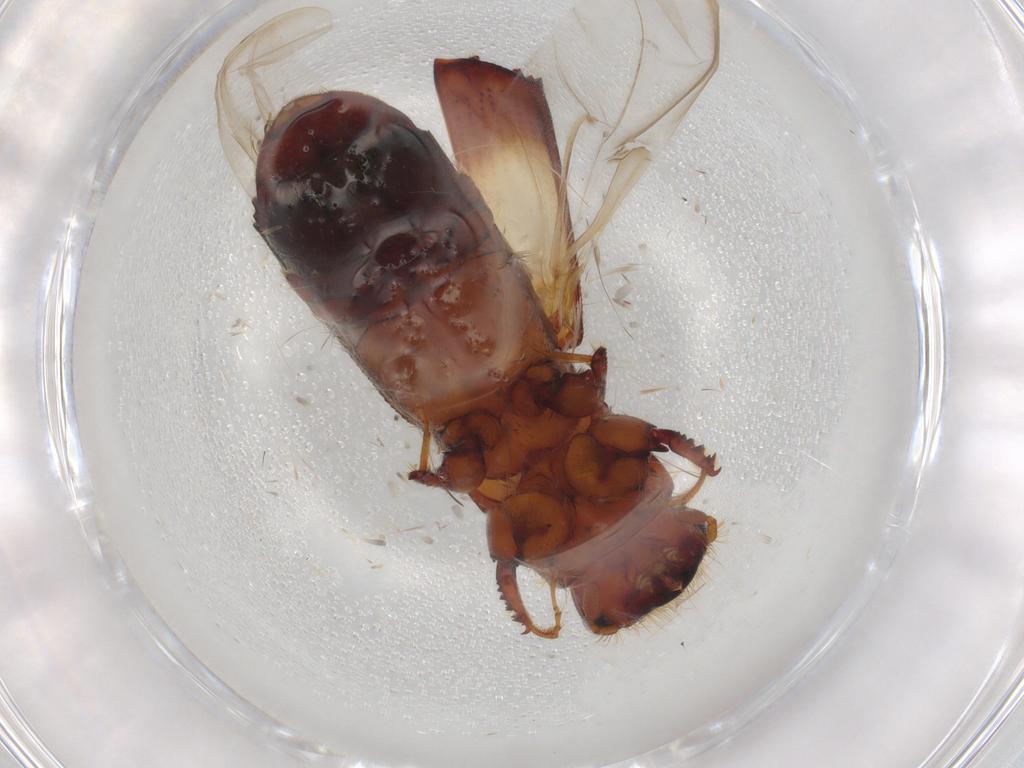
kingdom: Animalia
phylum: Arthropoda
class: Insecta
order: Coleoptera
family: Curculionidae
